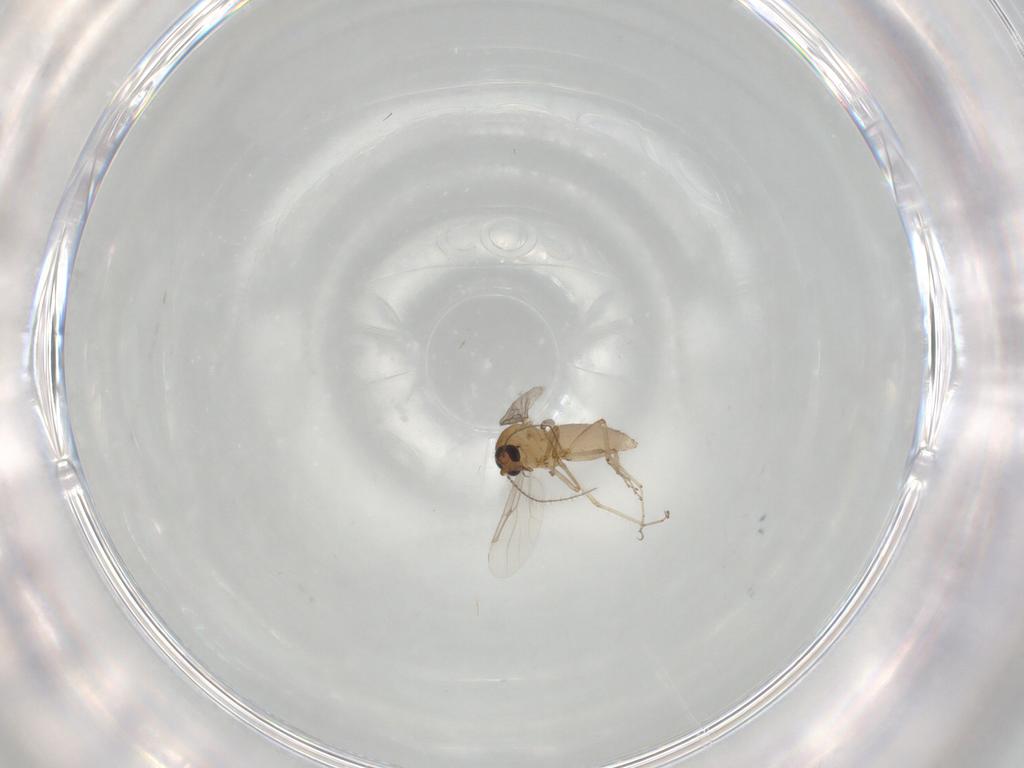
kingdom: Animalia
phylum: Arthropoda
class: Insecta
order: Diptera
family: Ceratopogonidae
